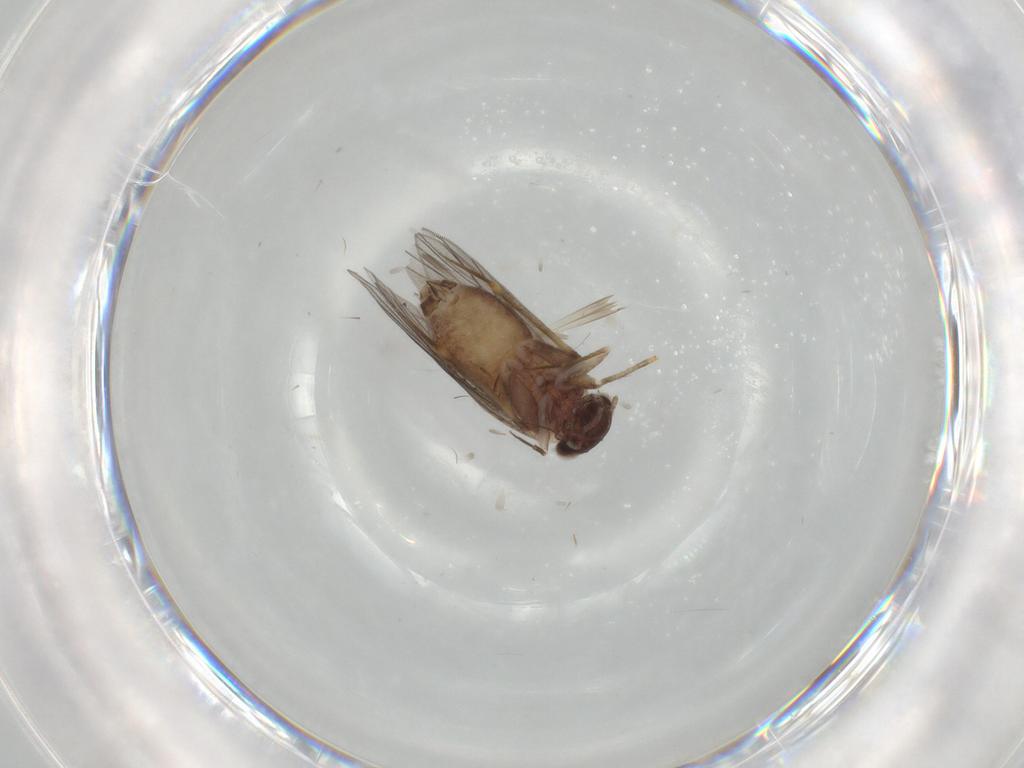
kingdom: Animalia
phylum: Arthropoda
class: Insecta
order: Psocodea
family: Lepidopsocidae
